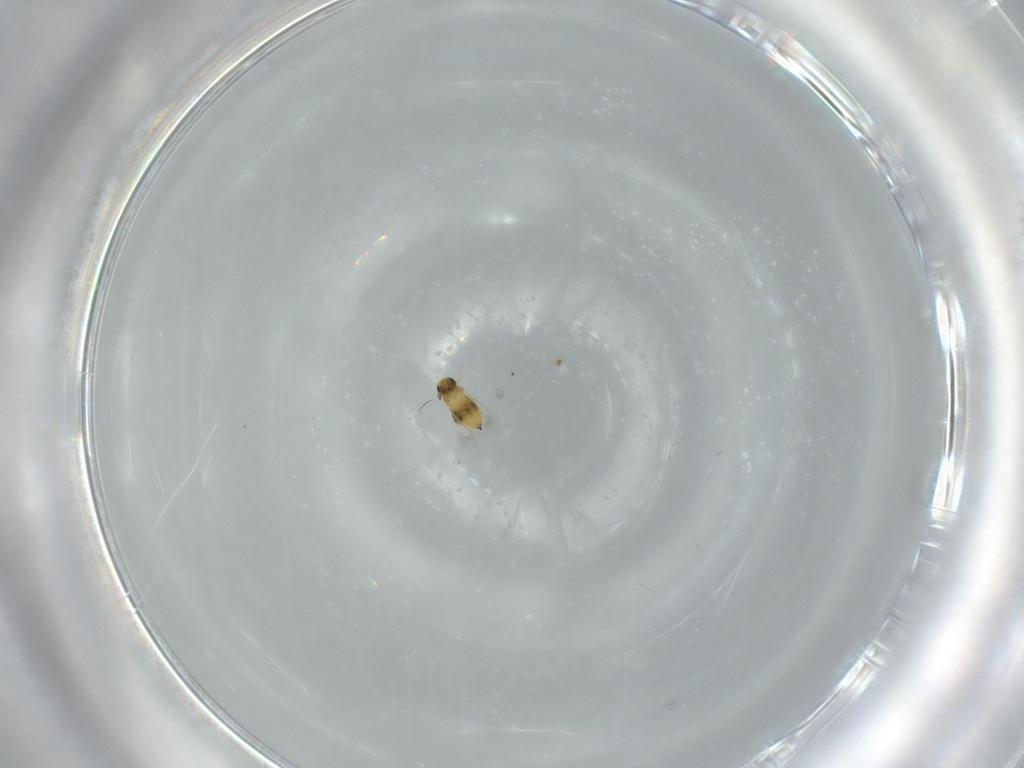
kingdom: Animalia
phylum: Arthropoda
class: Insecta
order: Hymenoptera
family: Formicidae
